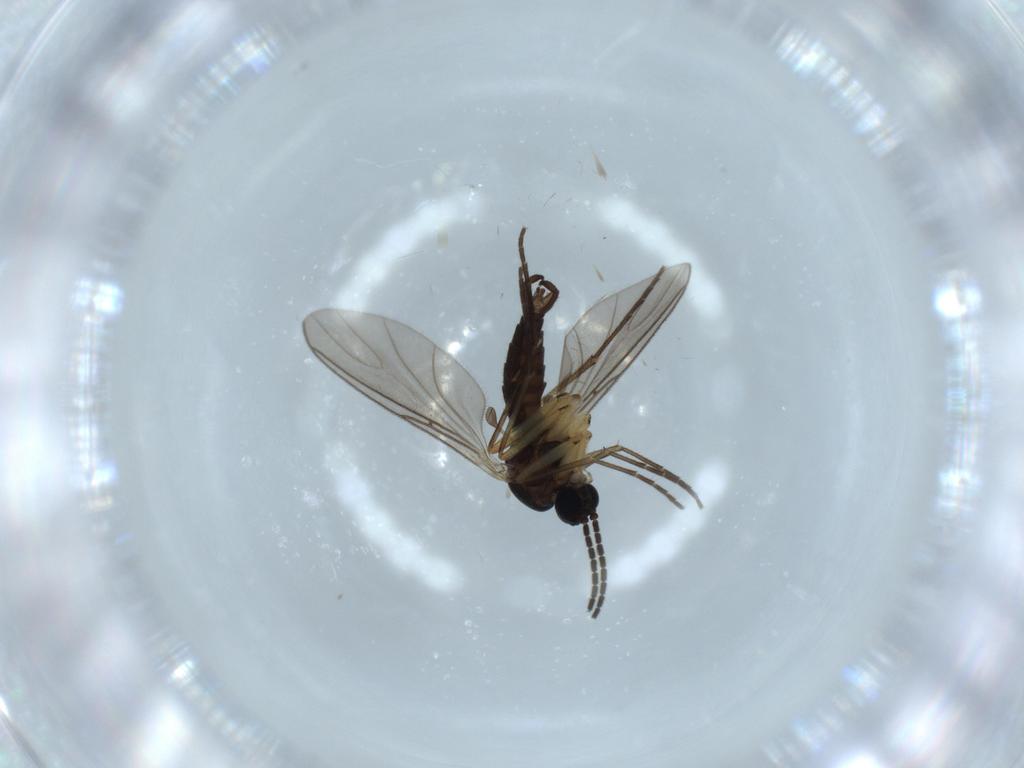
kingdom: Animalia
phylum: Arthropoda
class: Insecta
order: Diptera
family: Sciaridae
